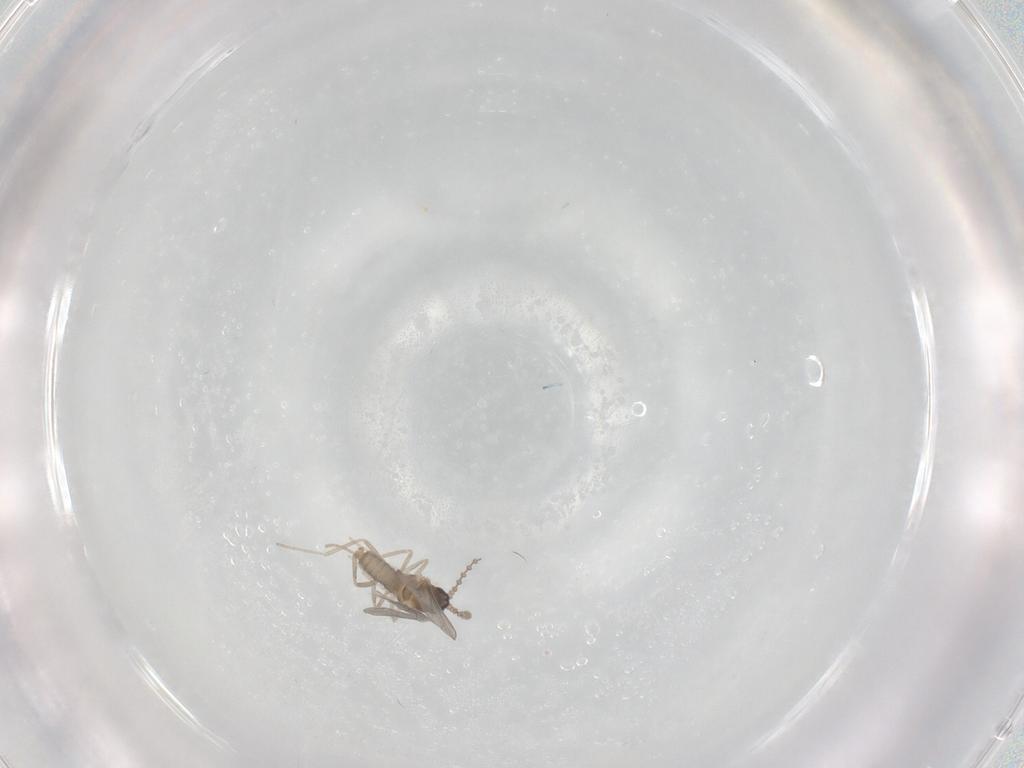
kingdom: Animalia
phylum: Arthropoda
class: Insecta
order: Diptera
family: Cecidomyiidae
